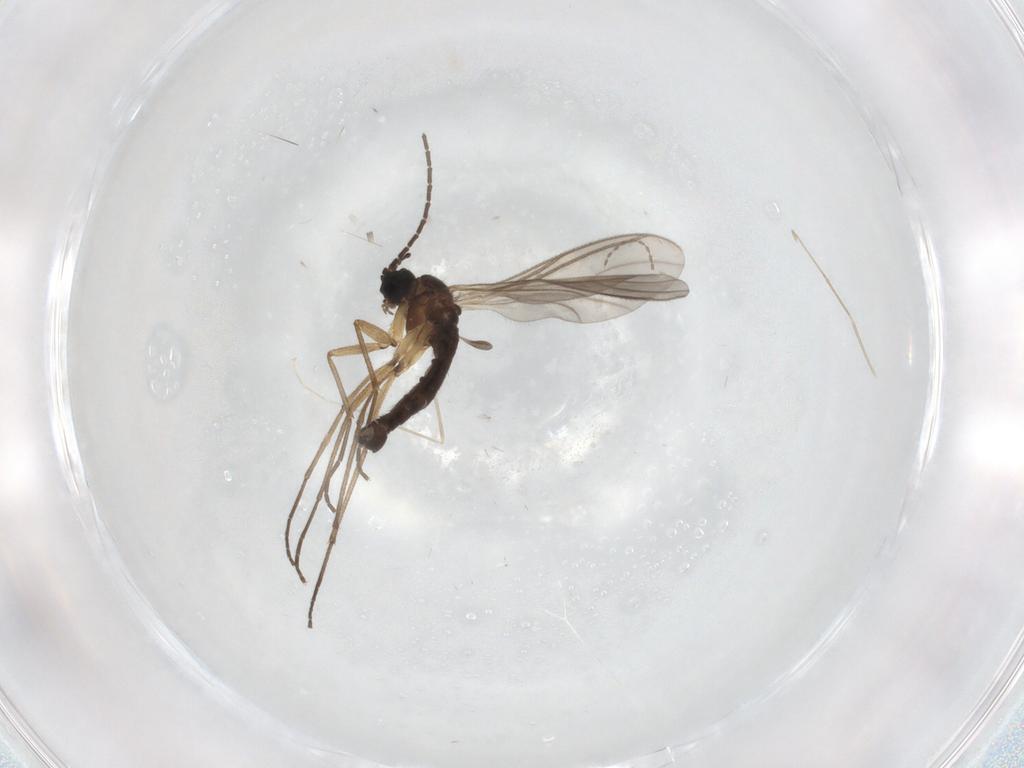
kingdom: Animalia
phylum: Arthropoda
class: Insecta
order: Diptera
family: Sciaridae
